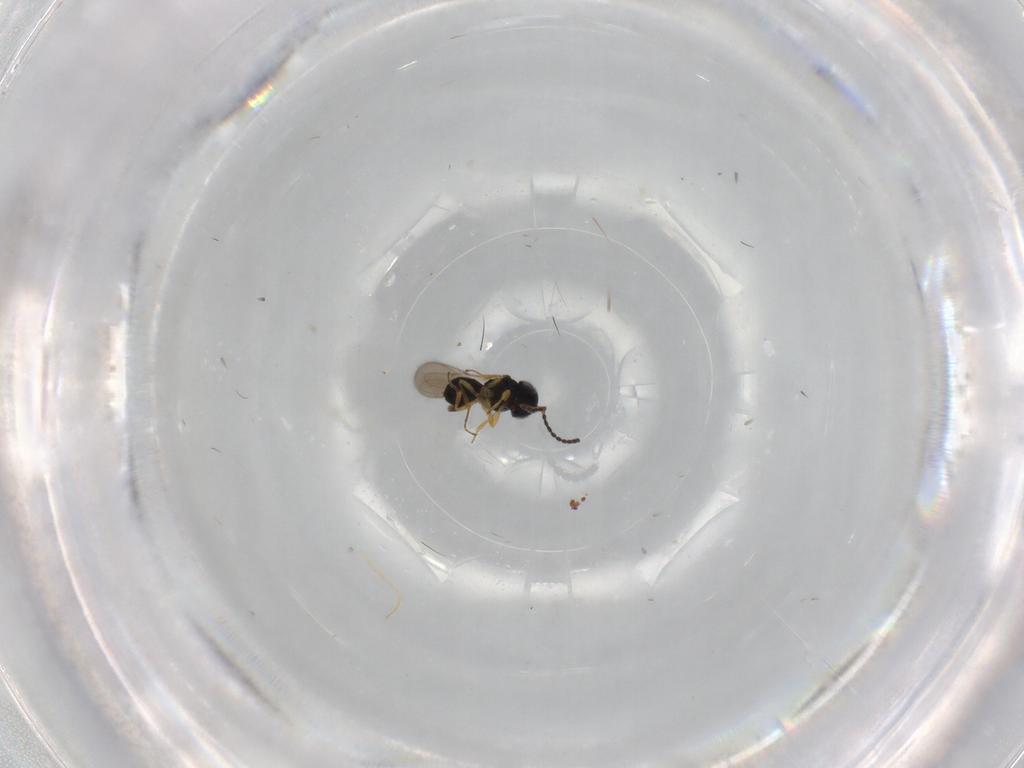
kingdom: Animalia
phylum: Arthropoda
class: Insecta
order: Hymenoptera
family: Scelionidae
